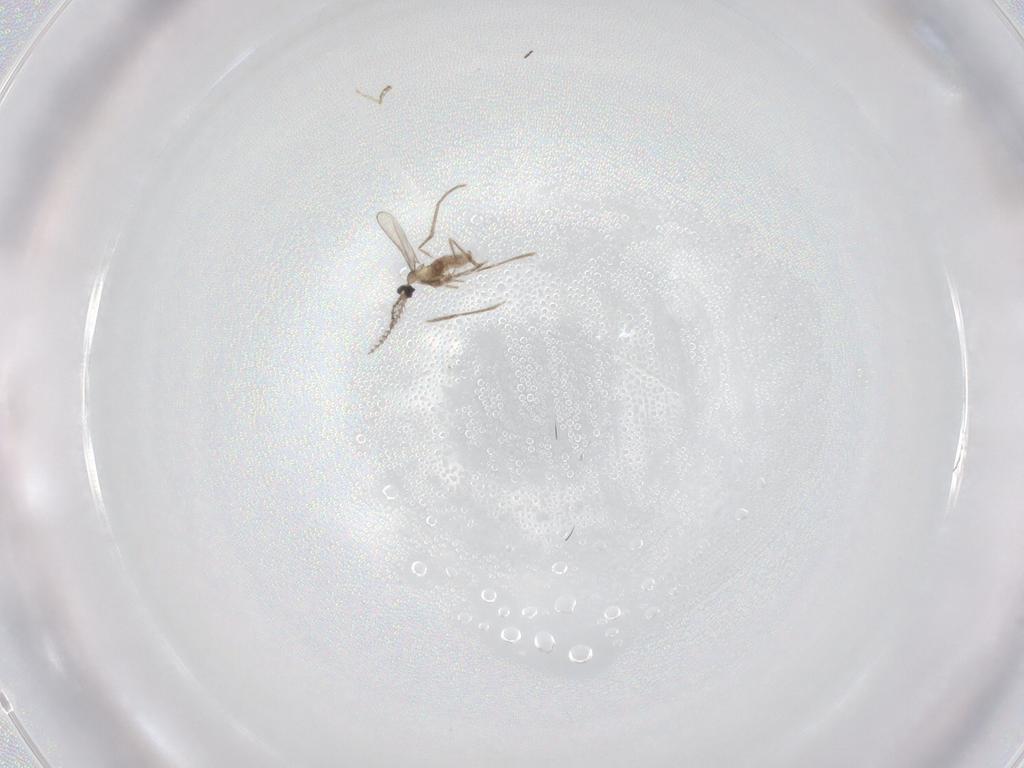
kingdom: Animalia
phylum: Arthropoda
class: Insecta
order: Diptera
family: Cecidomyiidae
